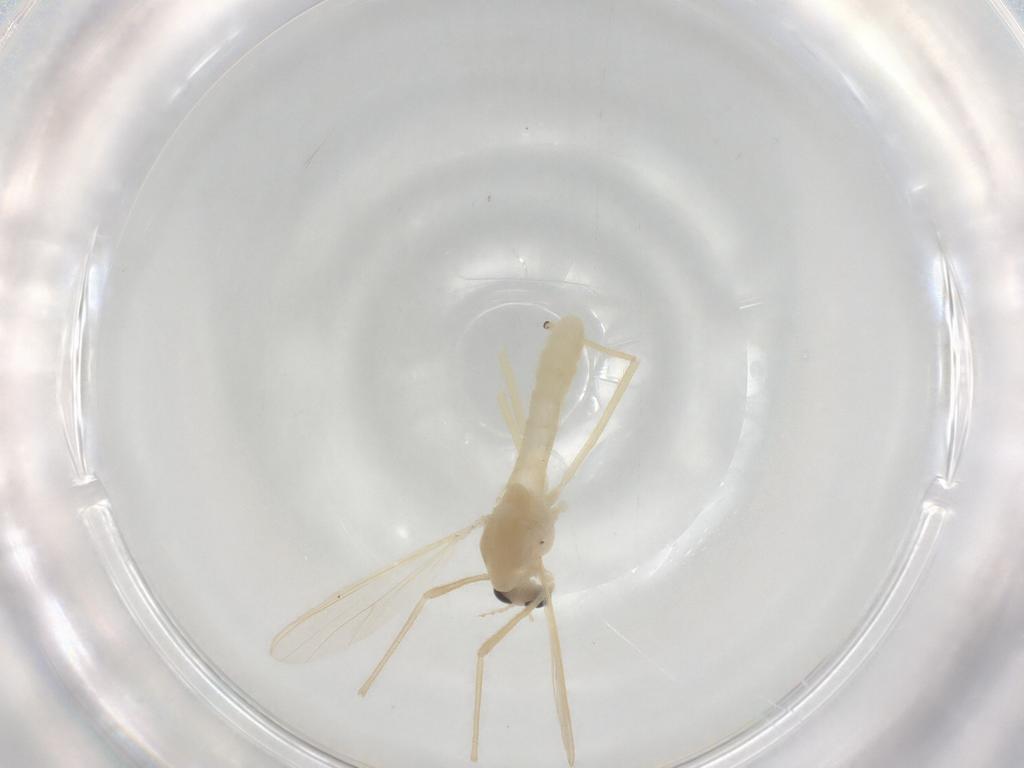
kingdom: Animalia
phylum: Arthropoda
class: Insecta
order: Diptera
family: Chironomidae
